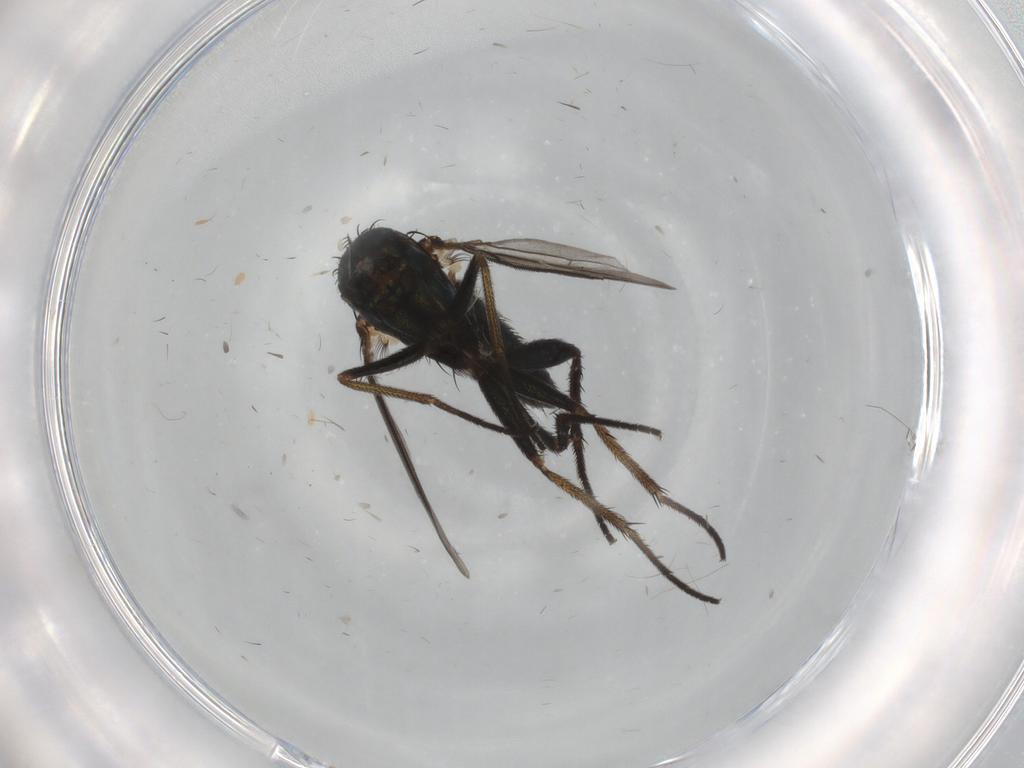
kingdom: Animalia
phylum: Arthropoda
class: Insecta
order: Diptera
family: Dolichopodidae
